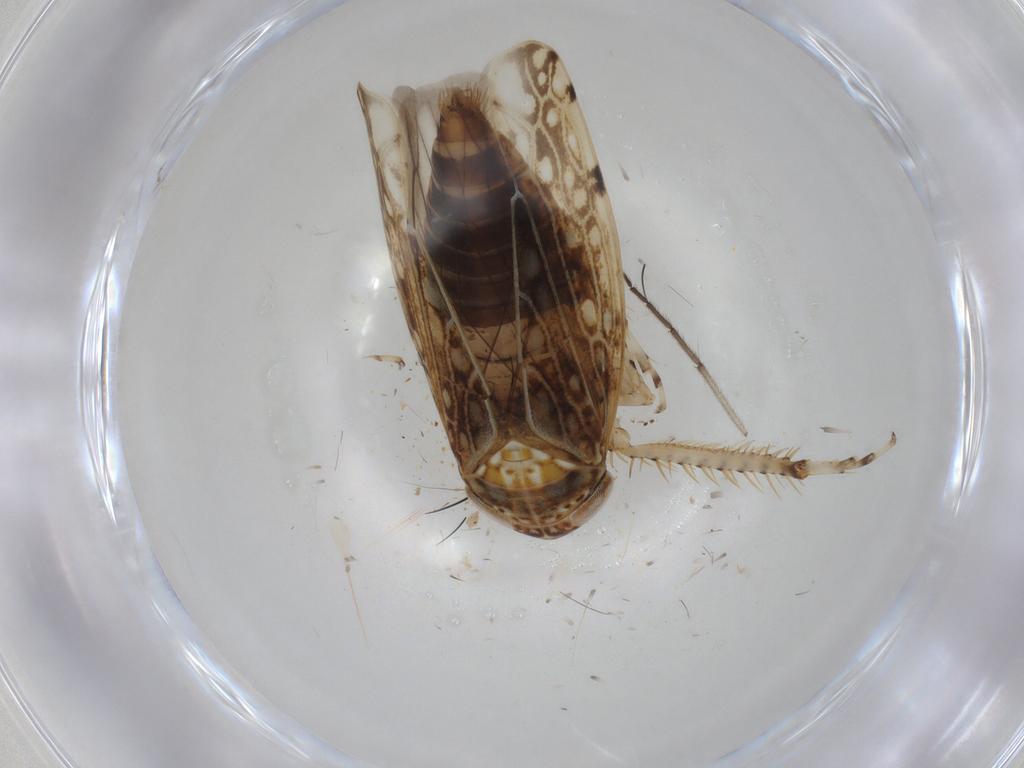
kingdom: Animalia
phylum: Arthropoda
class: Insecta
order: Hemiptera
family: Cicadellidae
